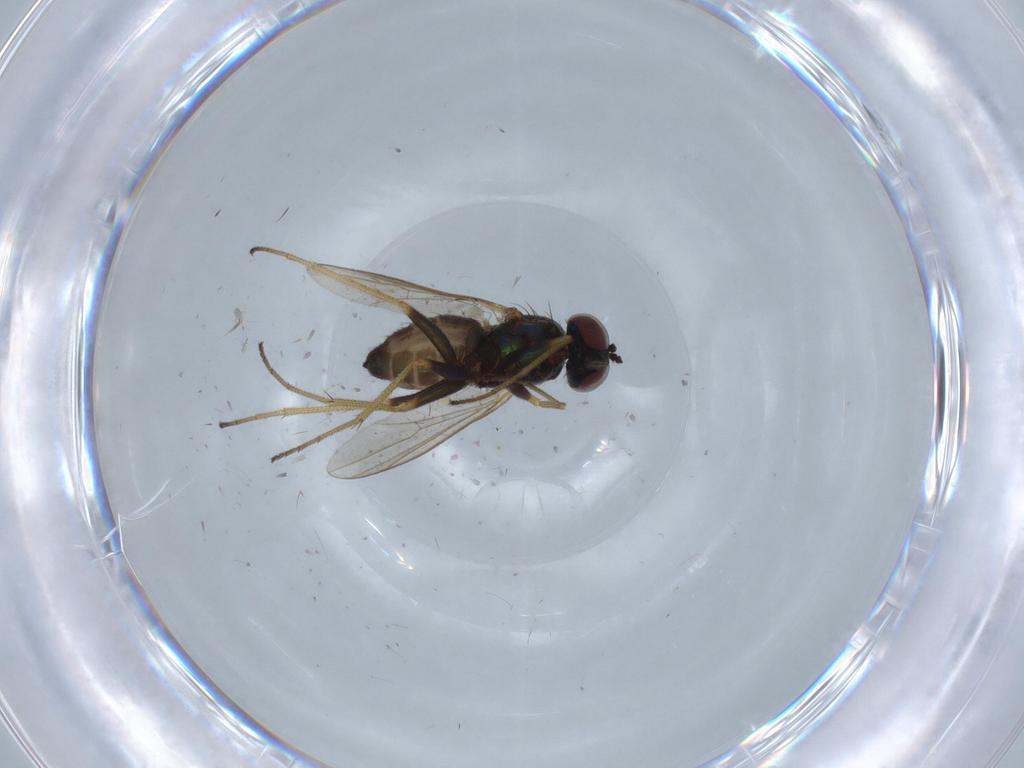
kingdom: Animalia
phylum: Arthropoda
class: Insecta
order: Diptera
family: Dolichopodidae
